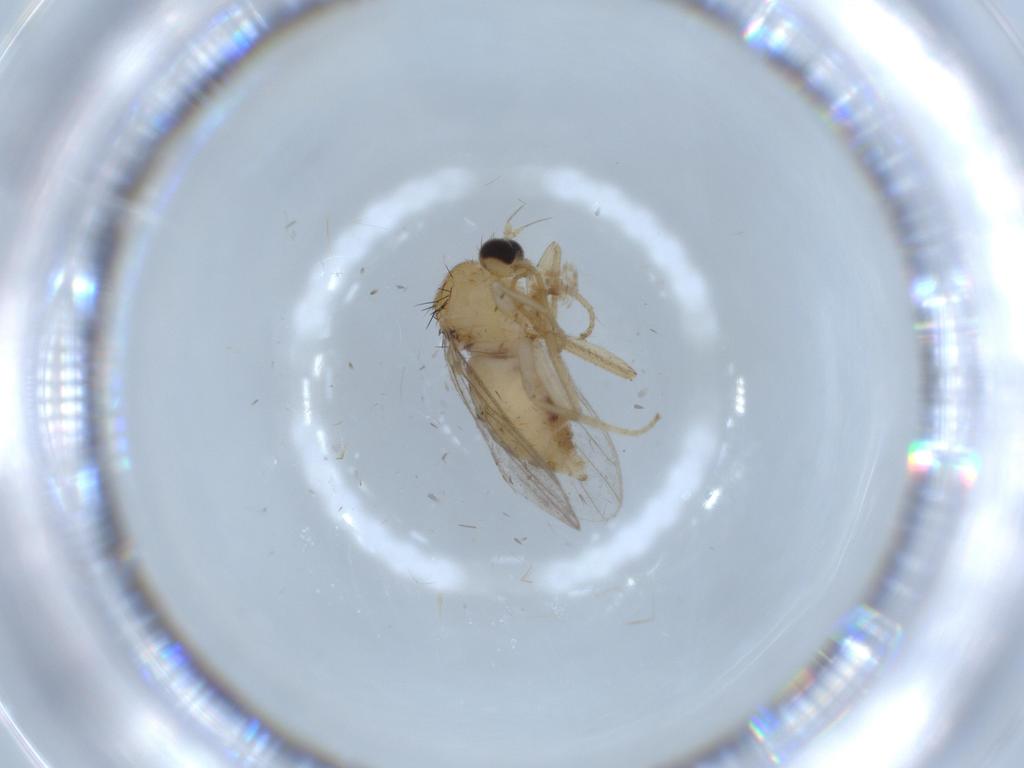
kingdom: Animalia
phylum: Arthropoda
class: Insecta
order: Diptera
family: Hybotidae
